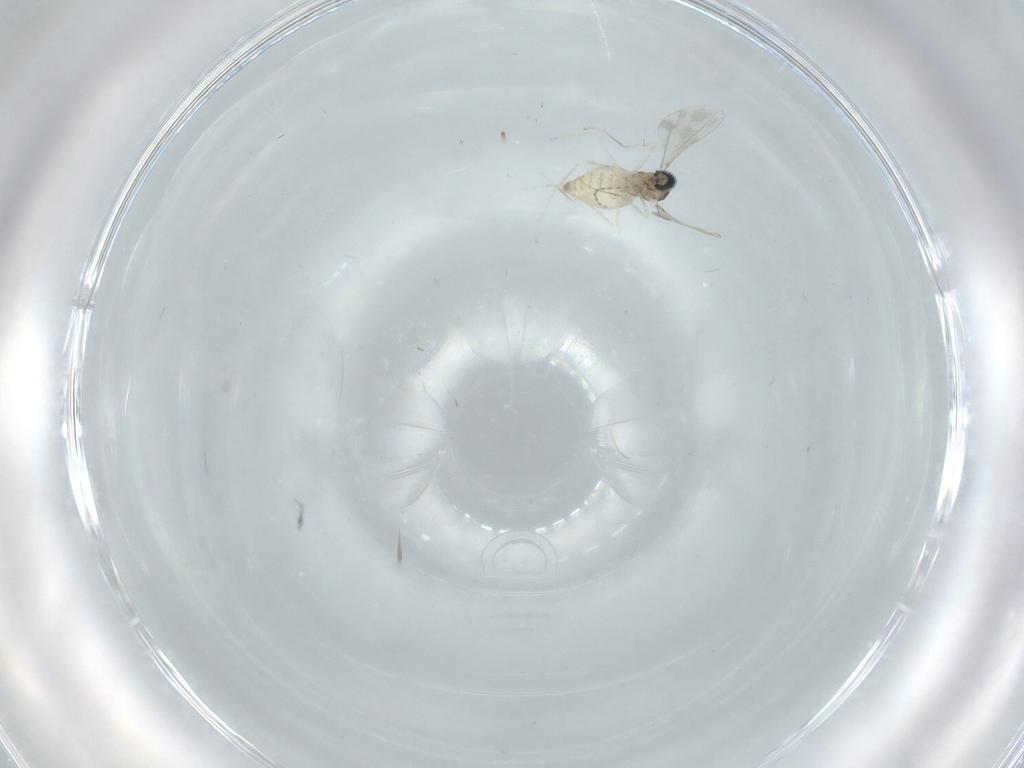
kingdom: Animalia
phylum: Arthropoda
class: Insecta
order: Diptera
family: Cecidomyiidae
